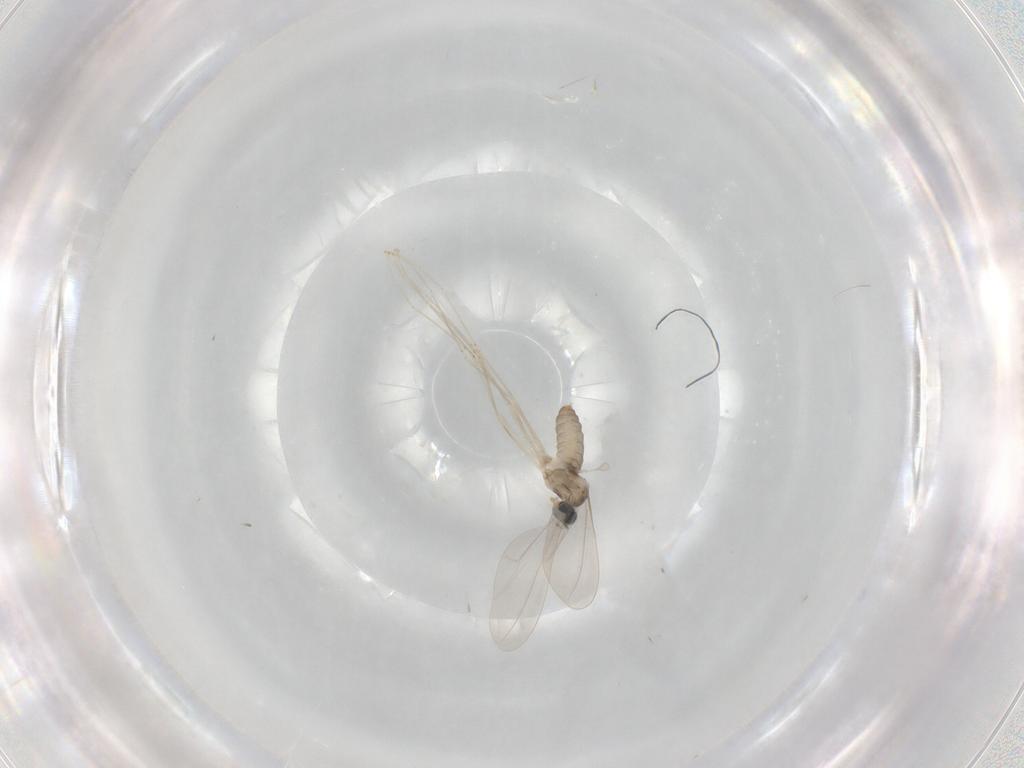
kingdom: Animalia
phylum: Arthropoda
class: Insecta
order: Diptera
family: Cecidomyiidae
